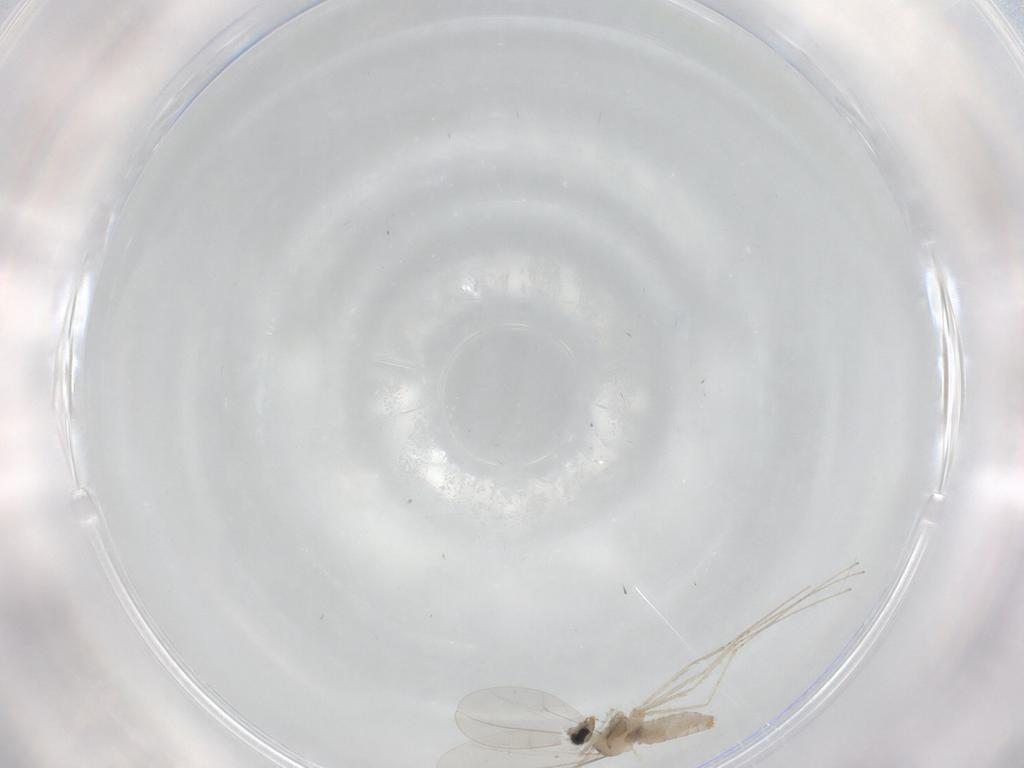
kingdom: Animalia
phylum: Arthropoda
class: Insecta
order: Diptera
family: Cecidomyiidae
